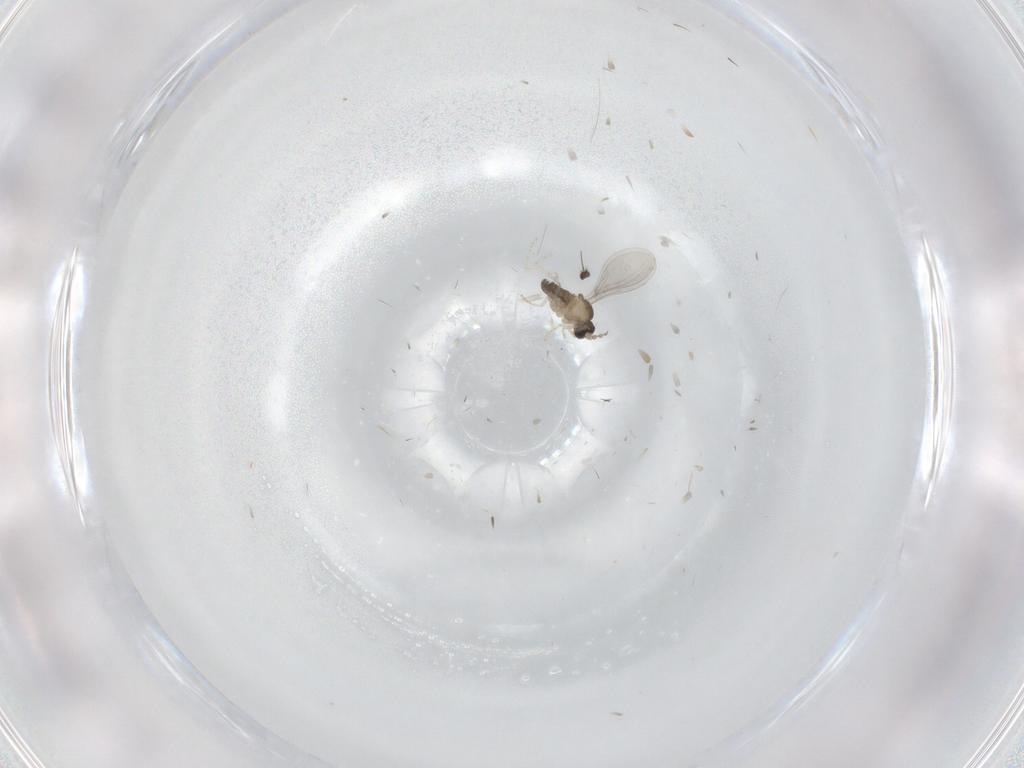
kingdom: Animalia
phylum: Arthropoda
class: Insecta
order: Diptera
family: Cecidomyiidae
